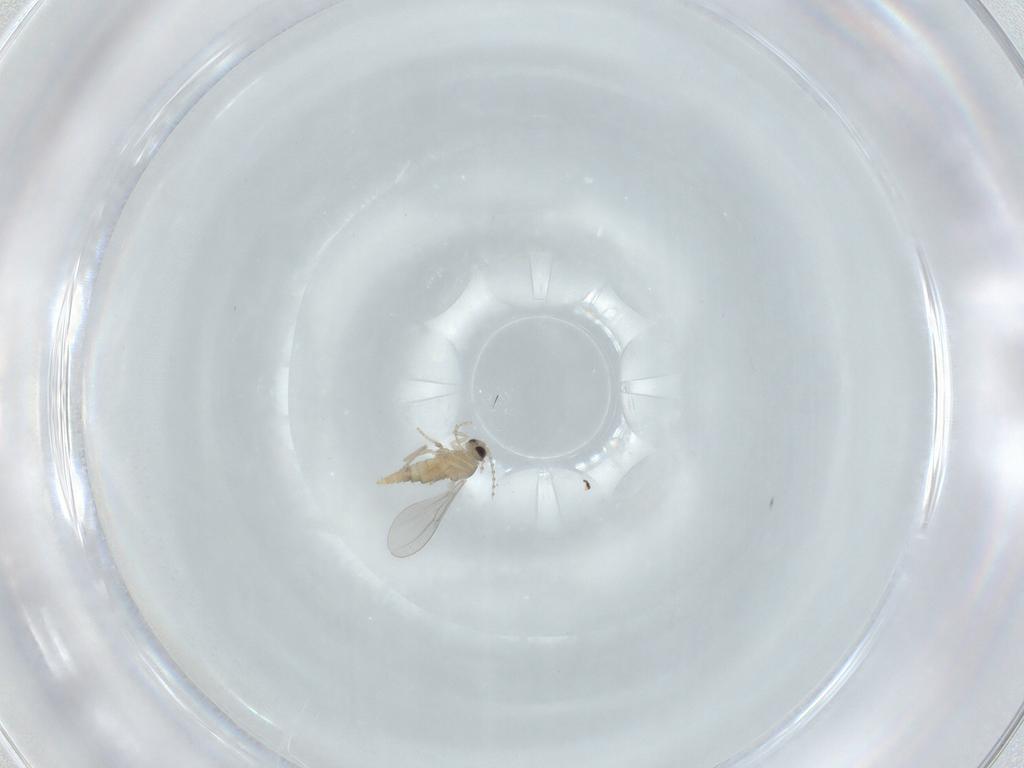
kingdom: Animalia
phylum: Arthropoda
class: Insecta
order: Diptera
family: Cecidomyiidae
